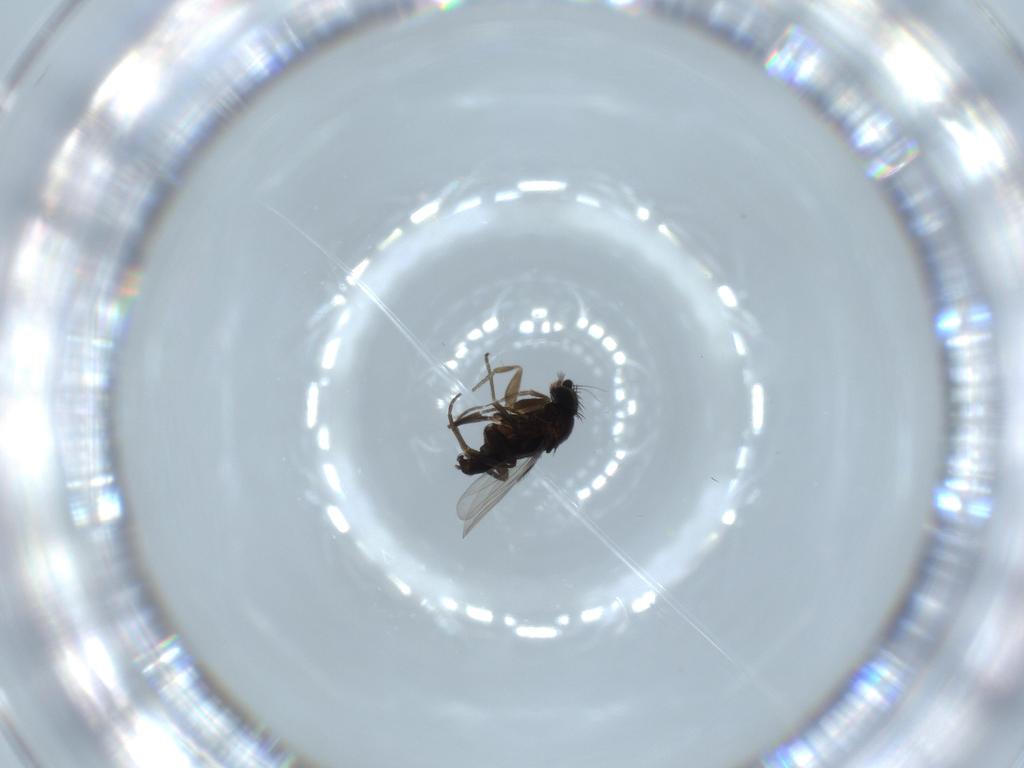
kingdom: Animalia
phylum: Arthropoda
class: Insecta
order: Diptera
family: Phoridae
